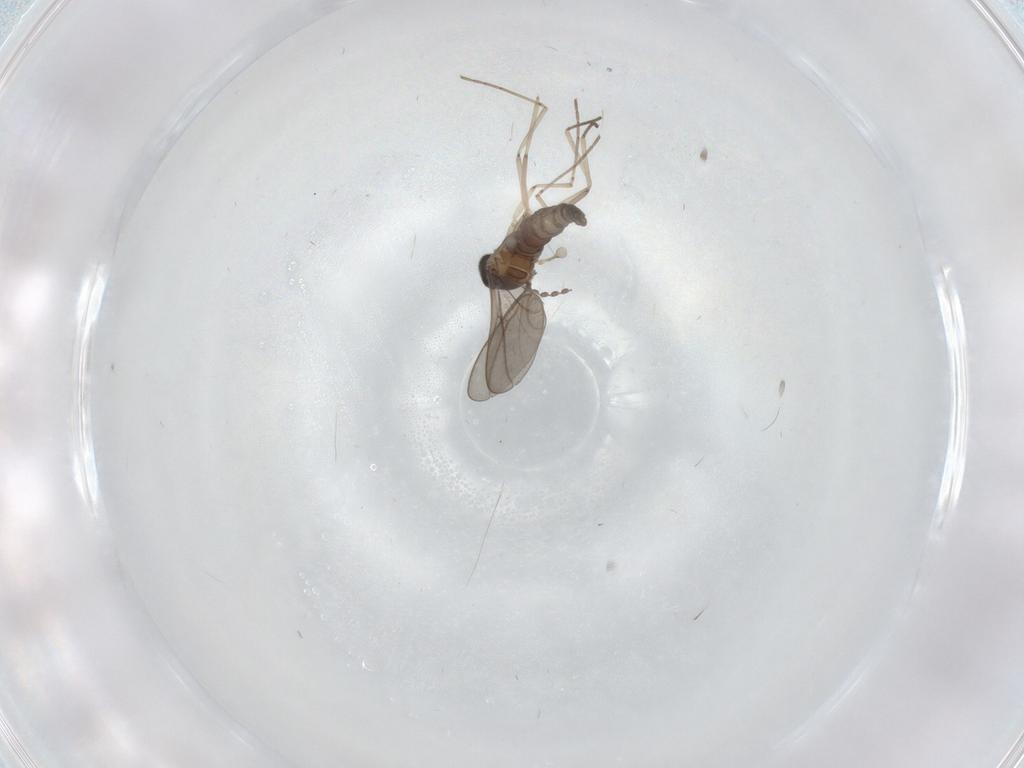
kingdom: Animalia
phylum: Arthropoda
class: Insecta
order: Diptera
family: Cecidomyiidae
